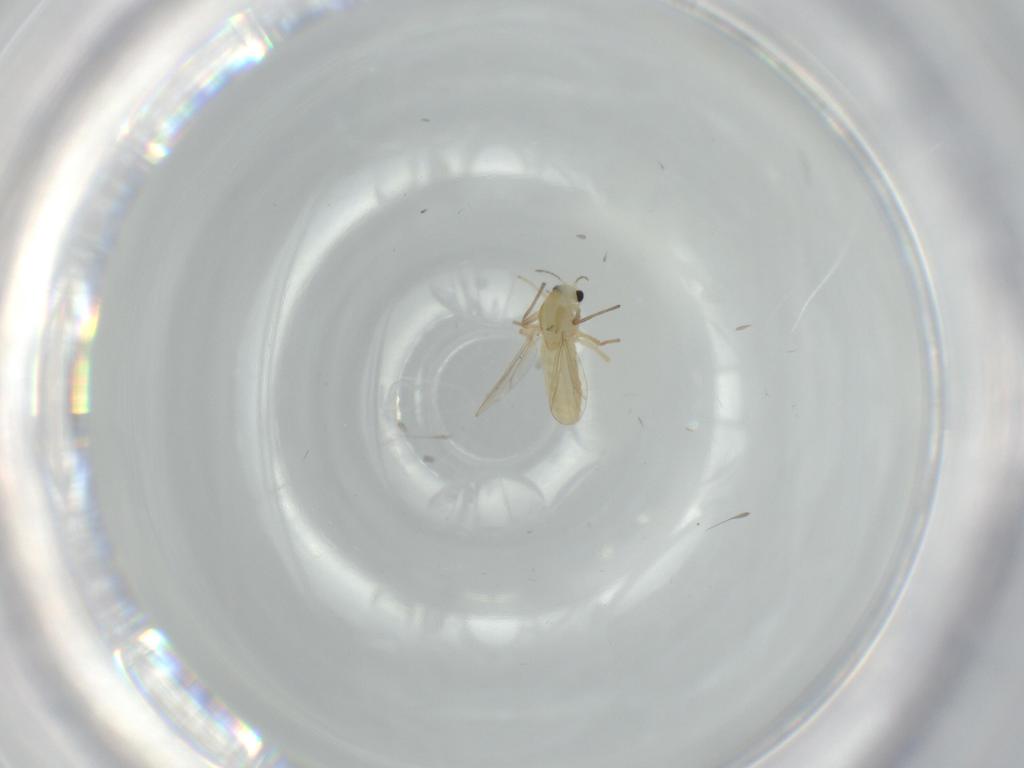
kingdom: Animalia
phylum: Arthropoda
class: Insecta
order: Diptera
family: Chironomidae
